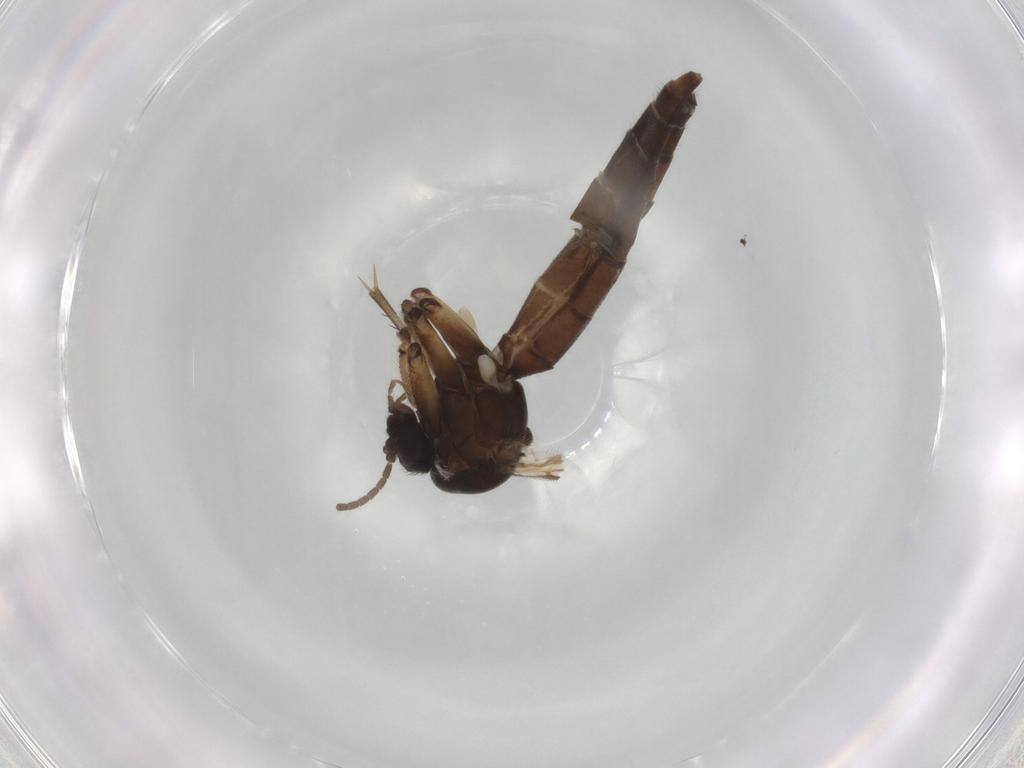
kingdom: Animalia
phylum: Arthropoda
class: Insecta
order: Diptera
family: Mycetophilidae
